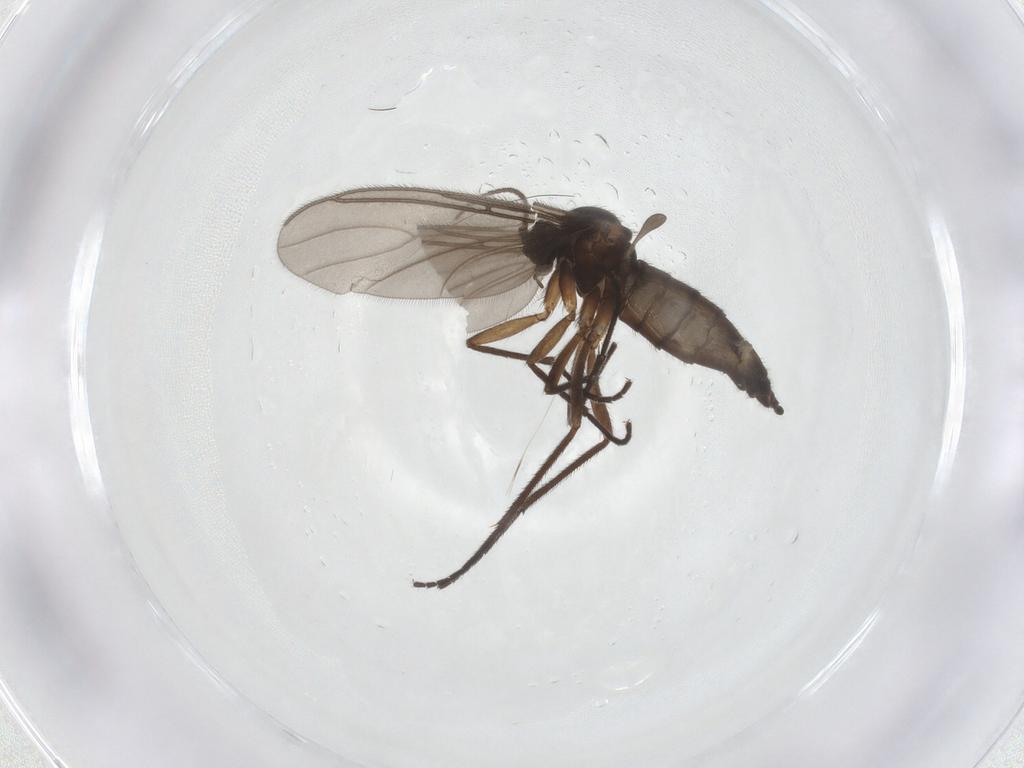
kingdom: Animalia
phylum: Arthropoda
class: Insecta
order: Diptera
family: Sciaridae
